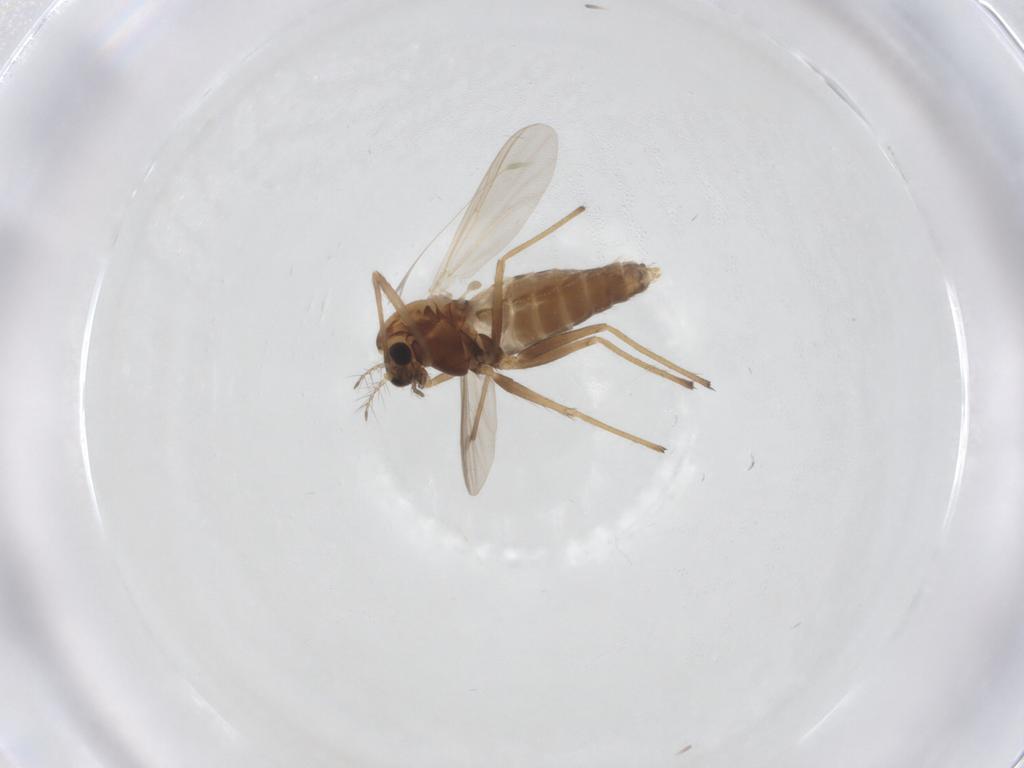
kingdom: Animalia
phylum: Arthropoda
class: Insecta
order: Diptera
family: Chironomidae
